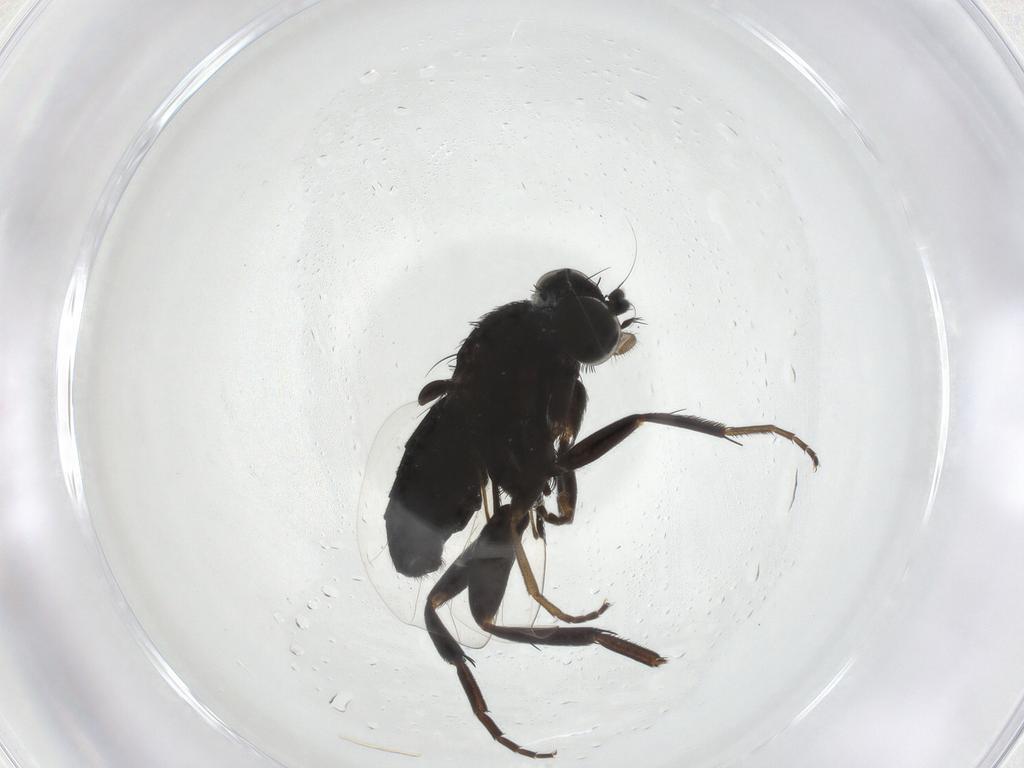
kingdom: Animalia
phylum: Arthropoda
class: Insecta
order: Diptera
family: Phoridae
